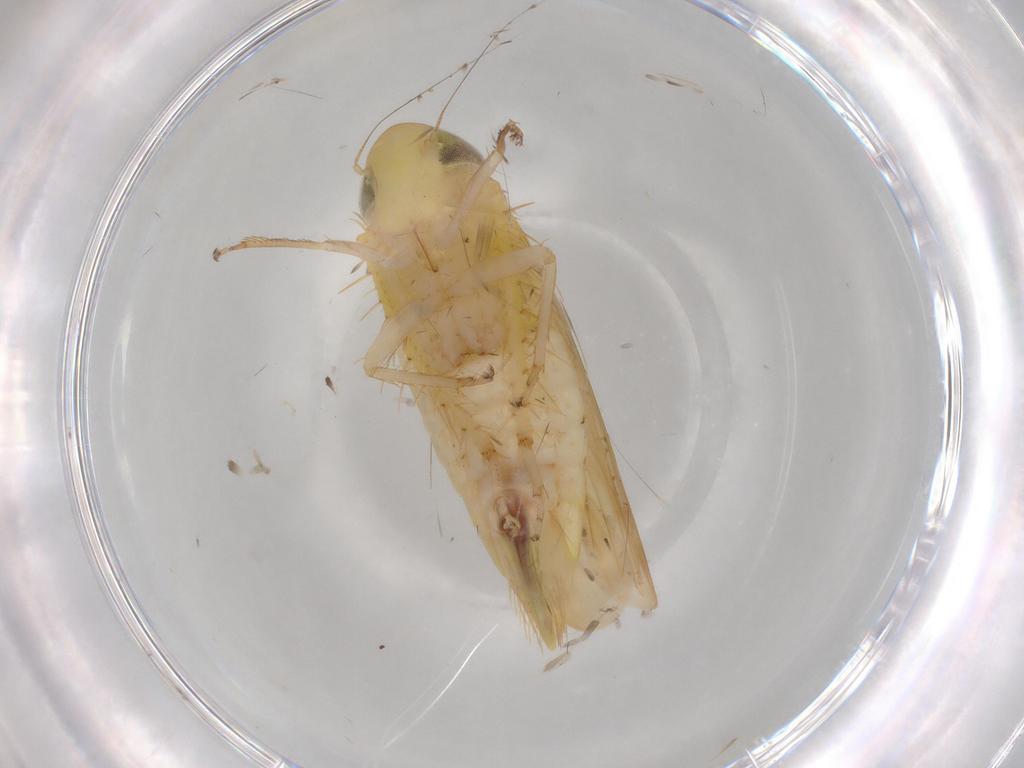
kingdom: Animalia
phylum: Arthropoda
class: Insecta
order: Hemiptera
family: Cicadellidae
